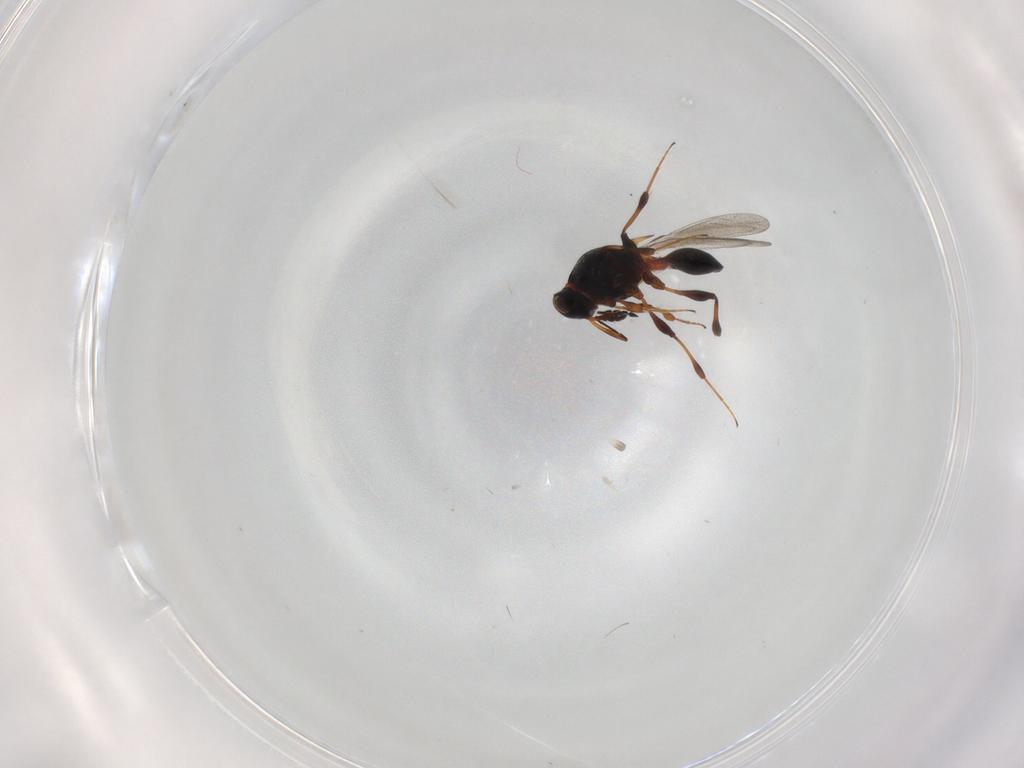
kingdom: Animalia
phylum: Arthropoda
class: Insecta
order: Hymenoptera
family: Platygastridae
